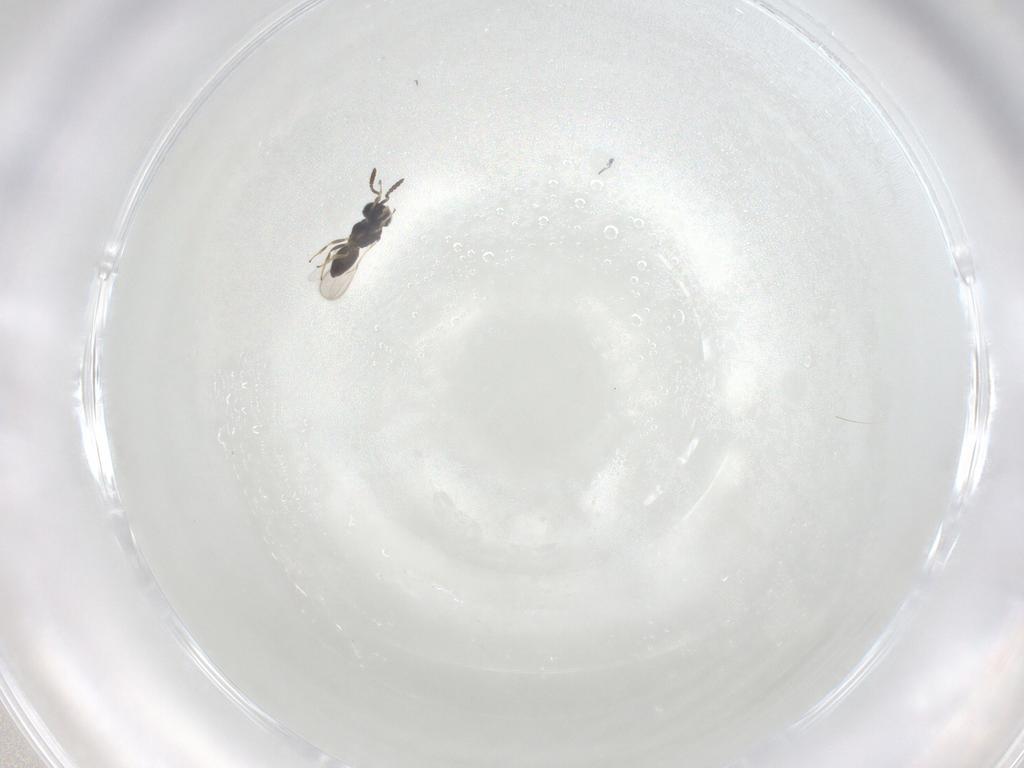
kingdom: Animalia
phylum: Arthropoda
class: Insecta
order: Hymenoptera
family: Scelionidae
